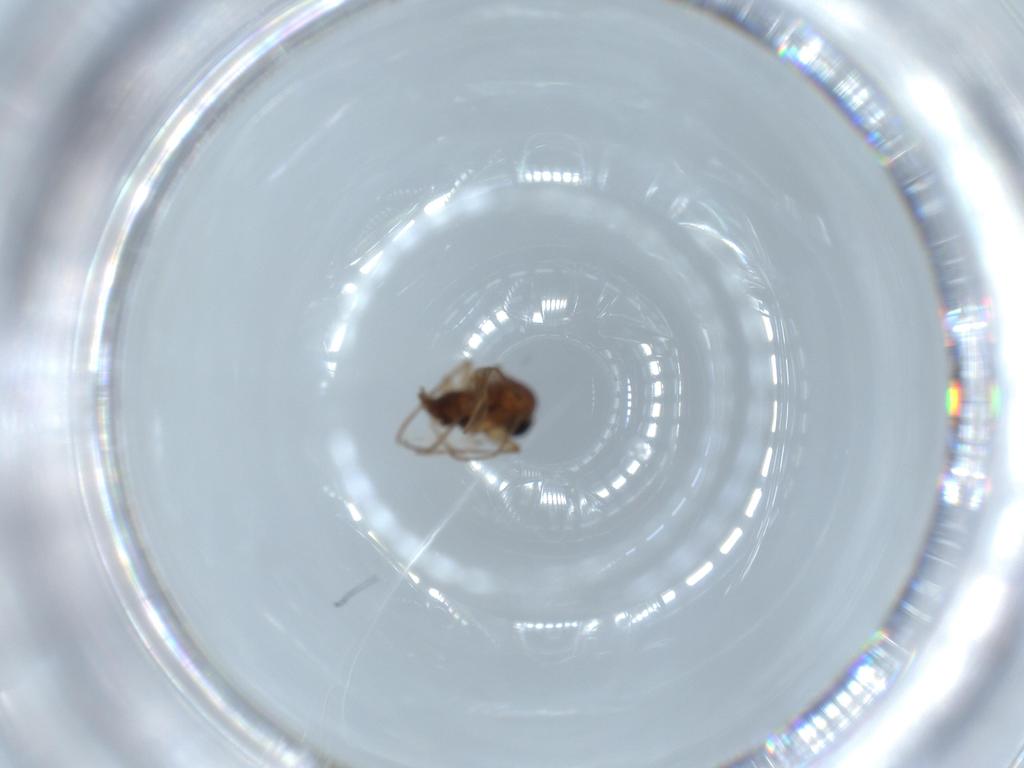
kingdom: Animalia
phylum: Arthropoda
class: Insecta
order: Diptera
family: Sciaridae
